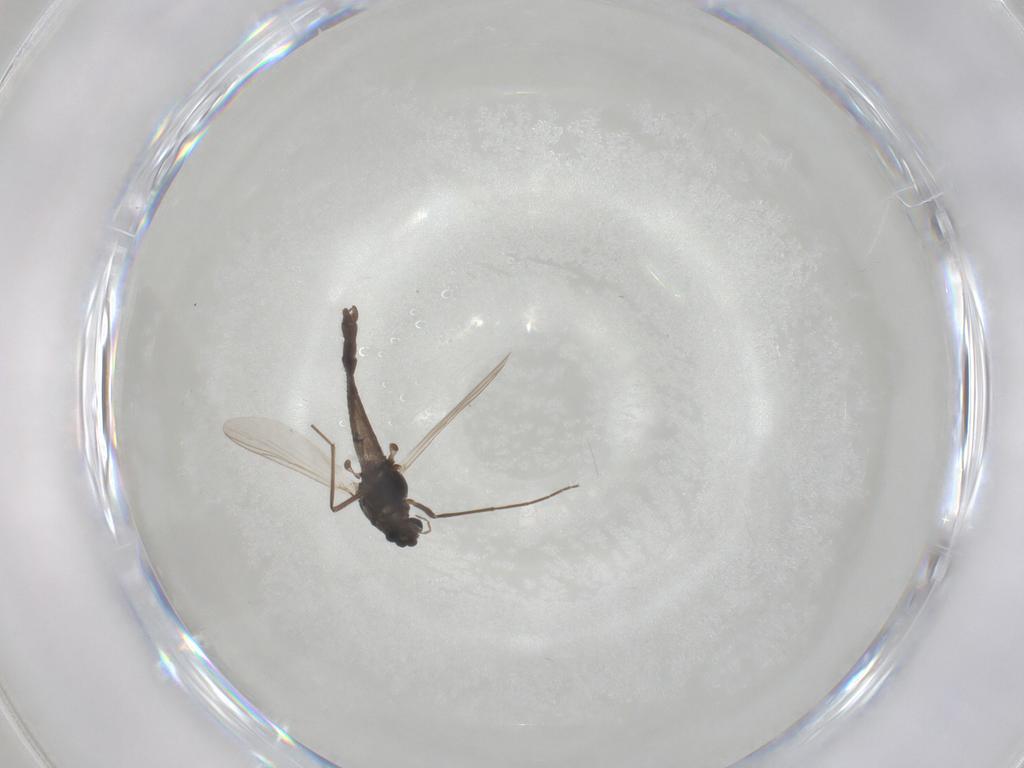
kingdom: Animalia
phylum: Arthropoda
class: Insecta
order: Diptera
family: Chironomidae
